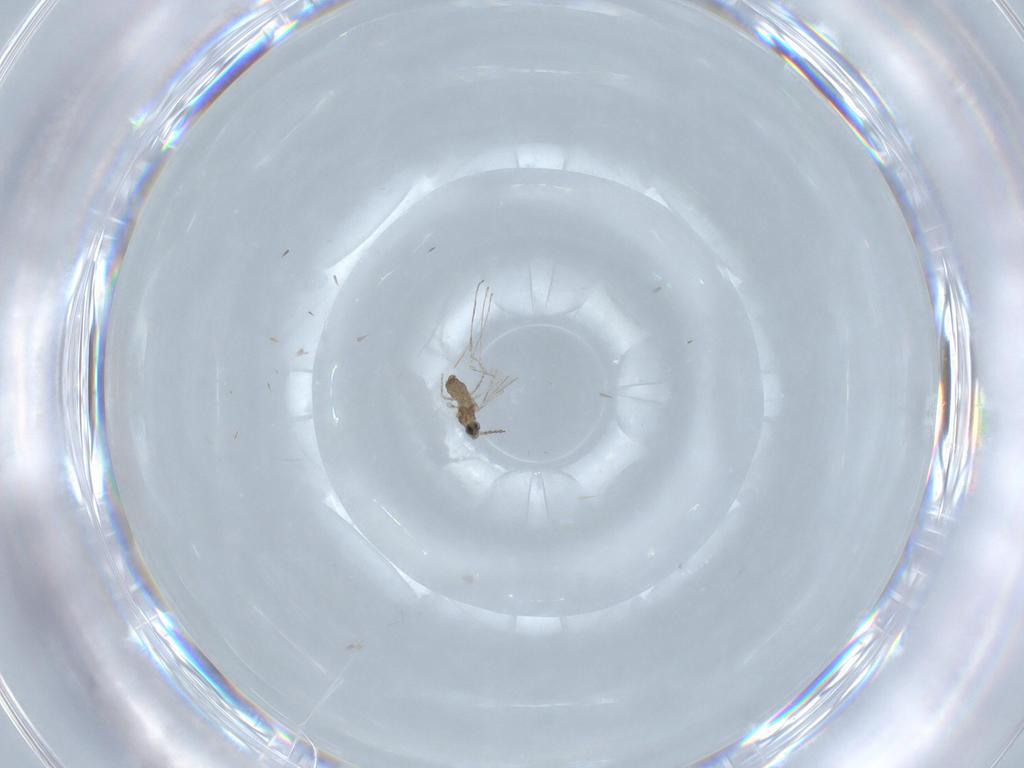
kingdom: Animalia
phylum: Arthropoda
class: Insecta
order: Diptera
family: Cecidomyiidae
